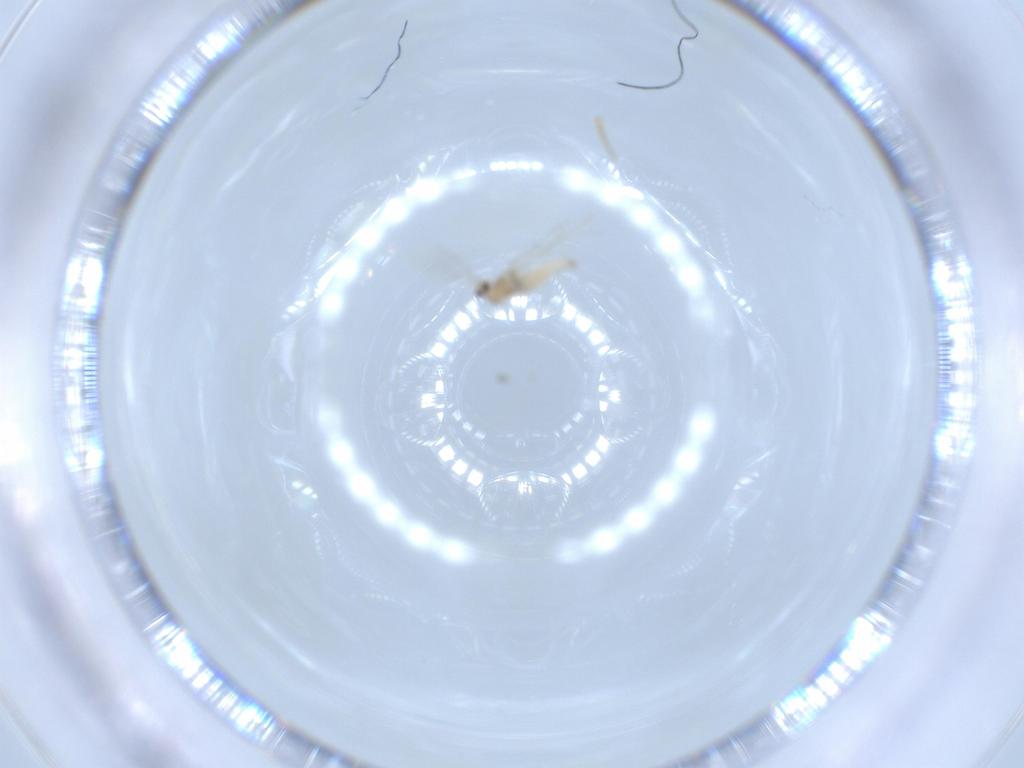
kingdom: Animalia
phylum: Arthropoda
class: Insecta
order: Diptera
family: Cecidomyiidae
